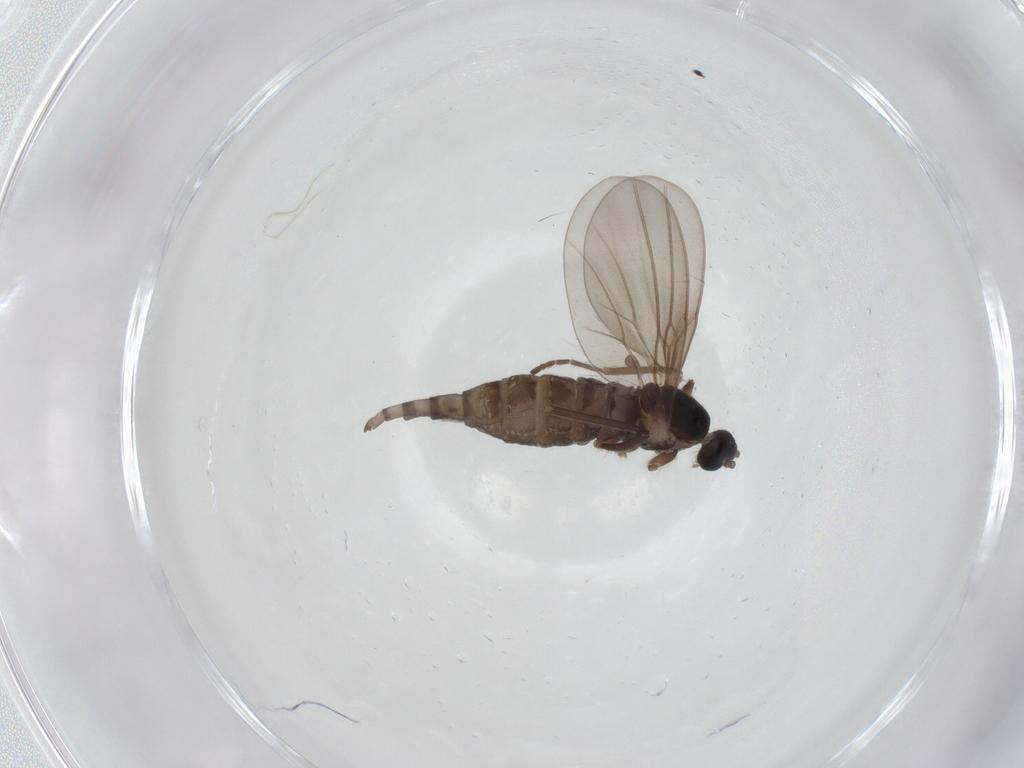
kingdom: Animalia
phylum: Arthropoda
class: Insecta
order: Diptera
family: Cecidomyiidae
